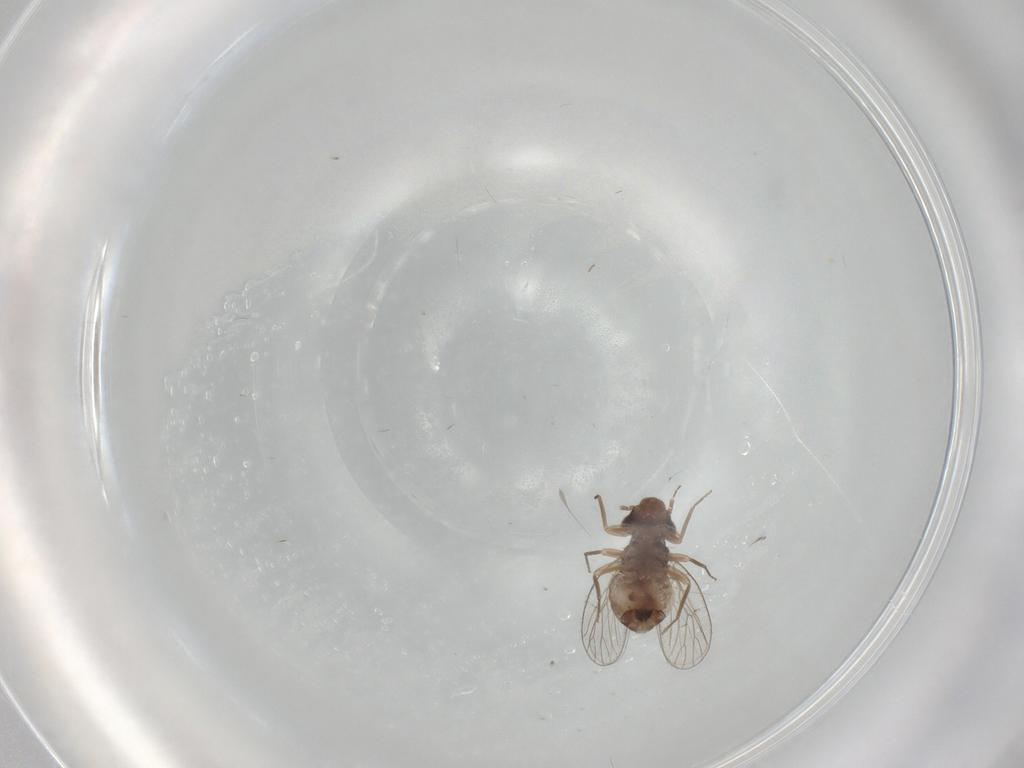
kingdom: Animalia
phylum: Arthropoda
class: Insecta
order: Psocodea
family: Psoquillidae
